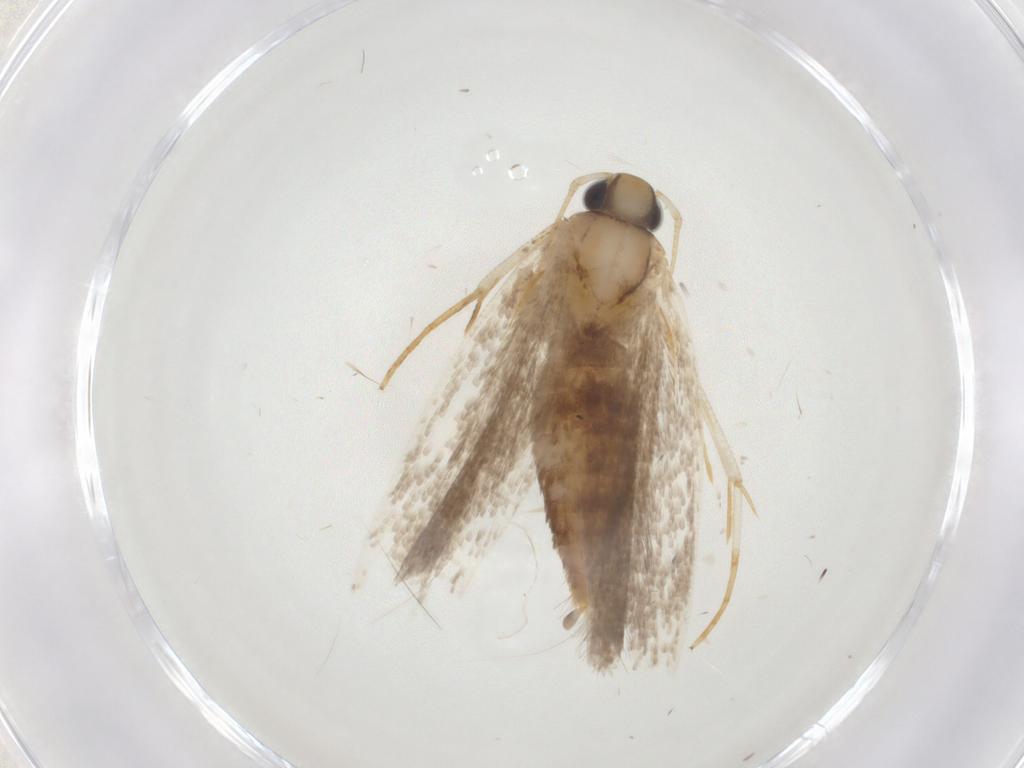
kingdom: Animalia
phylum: Arthropoda
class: Insecta
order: Lepidoptera
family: Gelechiidae
